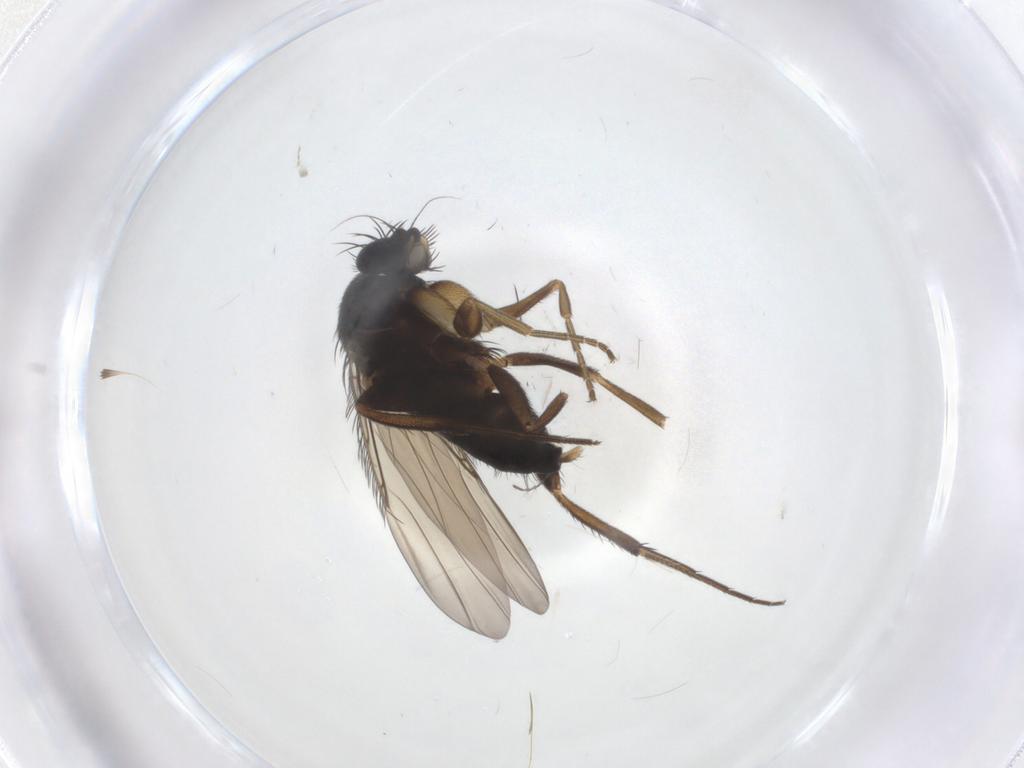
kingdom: Animalia
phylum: Arthropoda
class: Insecta
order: Diptera
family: Phoridae
